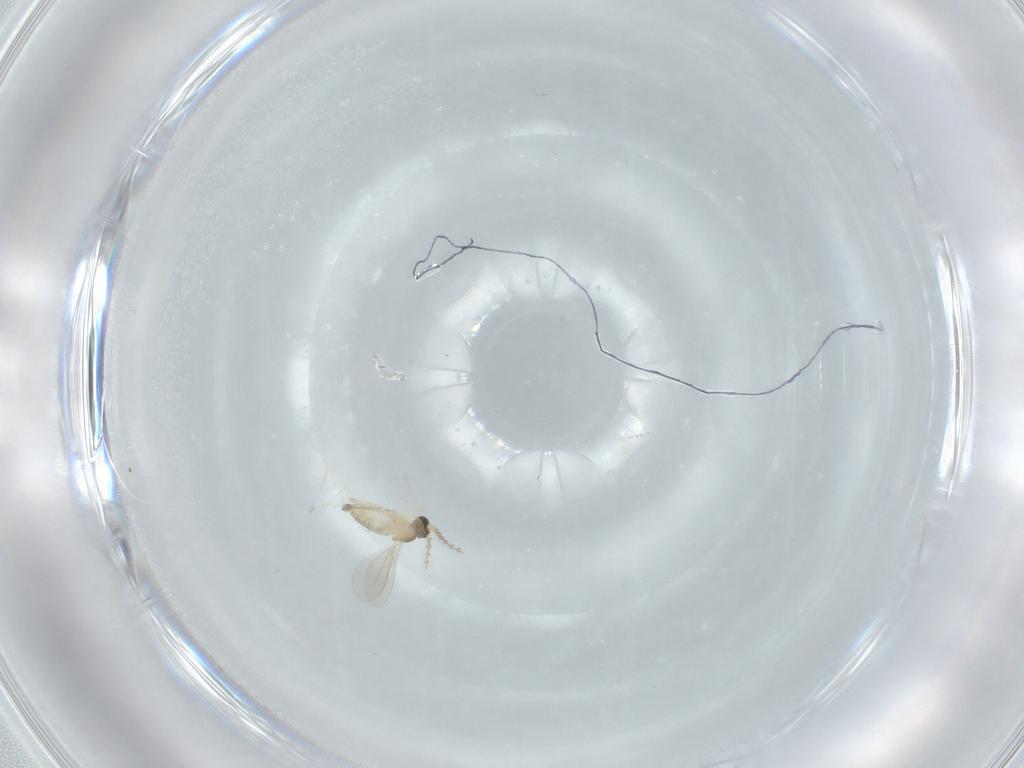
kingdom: Animalia
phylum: Arthropoda
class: Insecta
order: Diptera
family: Cecidomyiidae
